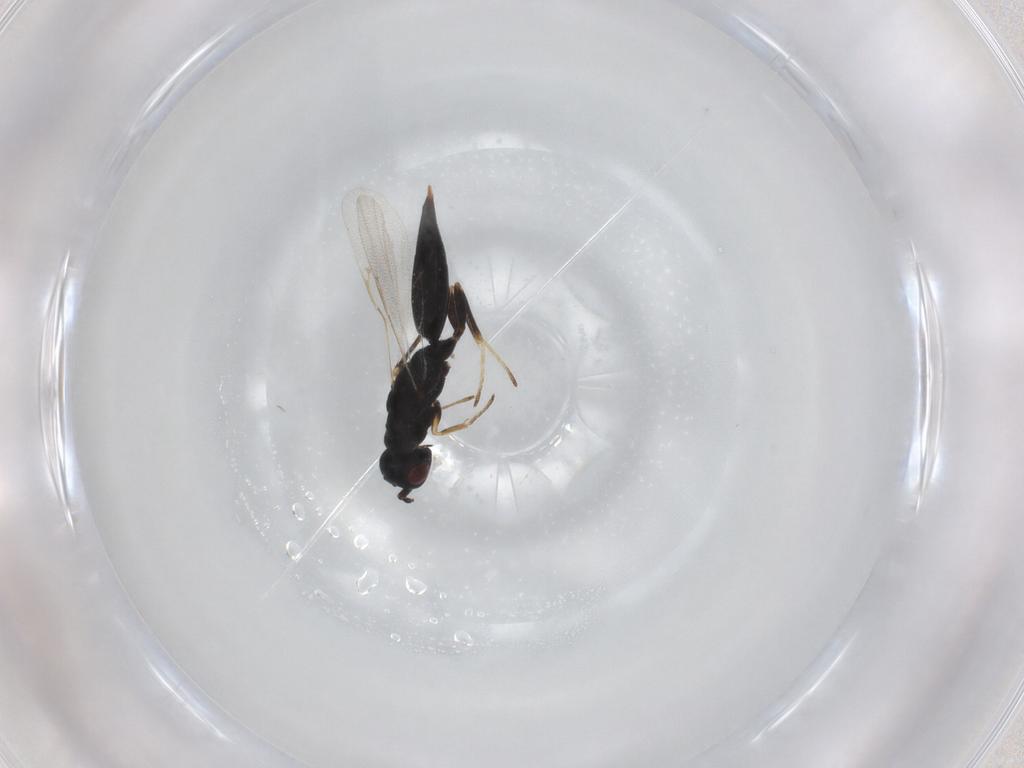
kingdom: Animalia
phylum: Arthropoda
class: Insecta
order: Hymenoptera
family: Eurytomidae
